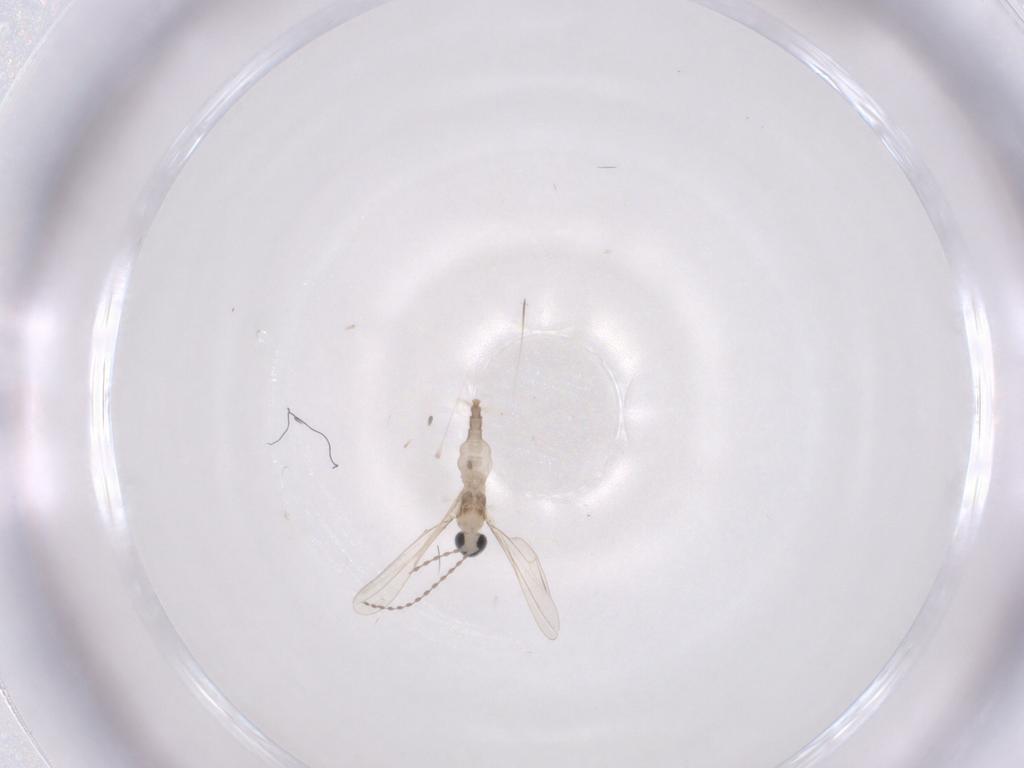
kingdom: Animalia
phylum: Arthropoda
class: Insecta
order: Diptera
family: Cecidomyiidae
